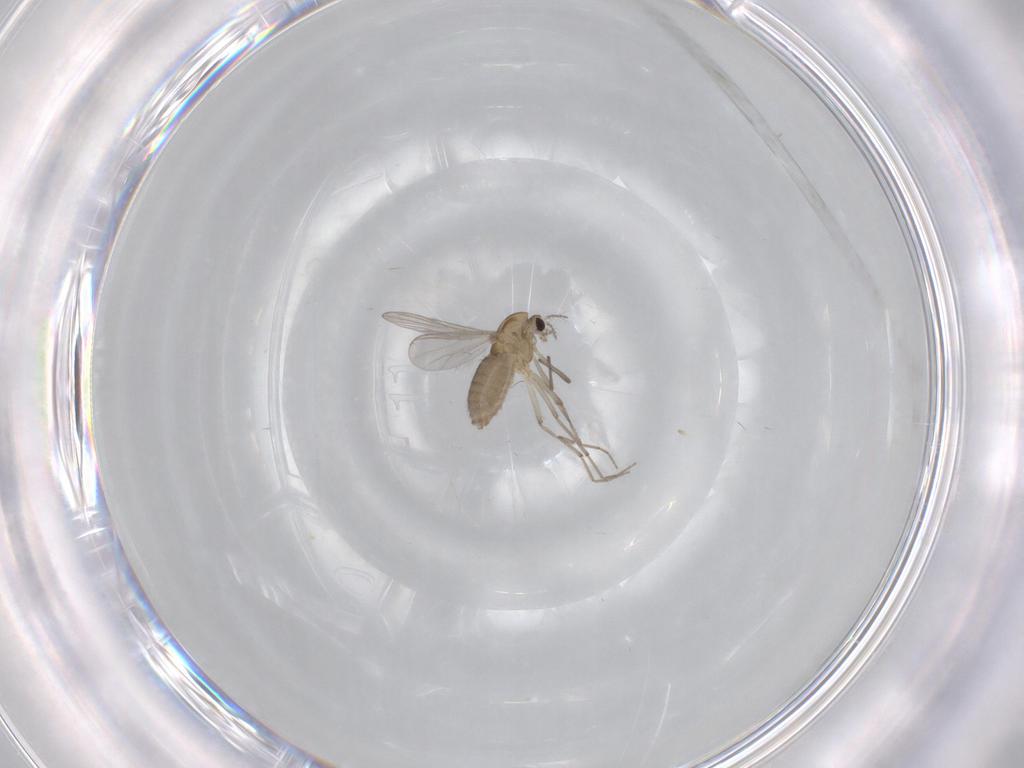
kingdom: Animalia
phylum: Arthropoda
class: Insecta
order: Diptera
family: Chironomidae
